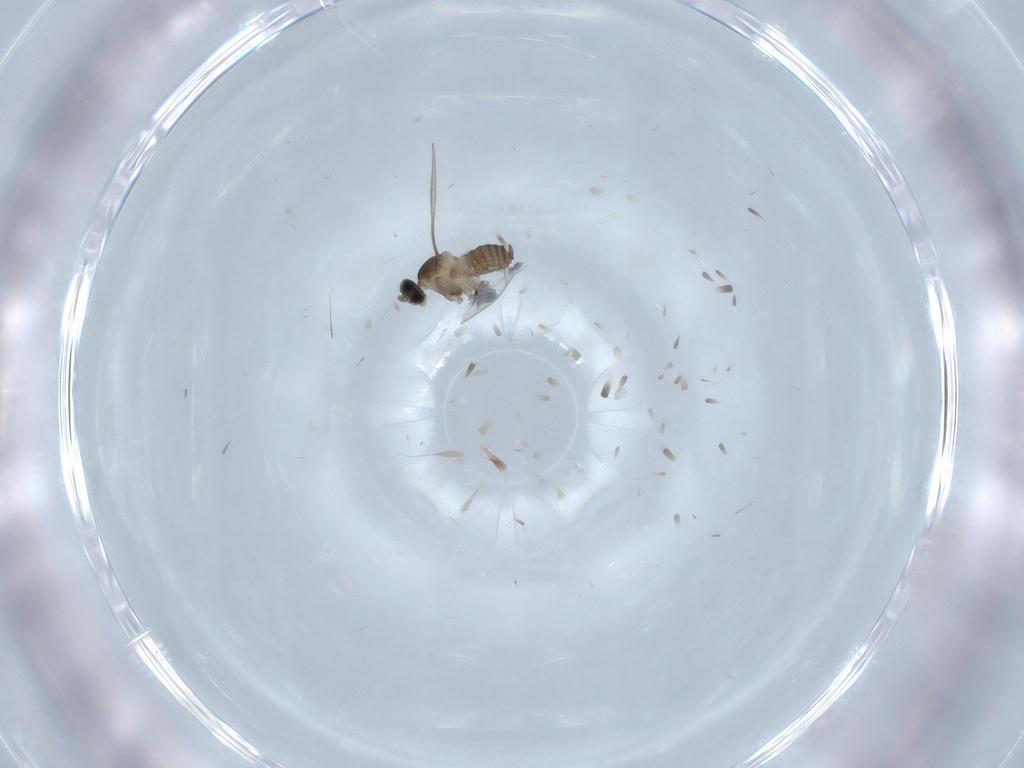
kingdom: Animalia
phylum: Arthropoda
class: Insecta
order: Diptera
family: Cecidomyiidae
